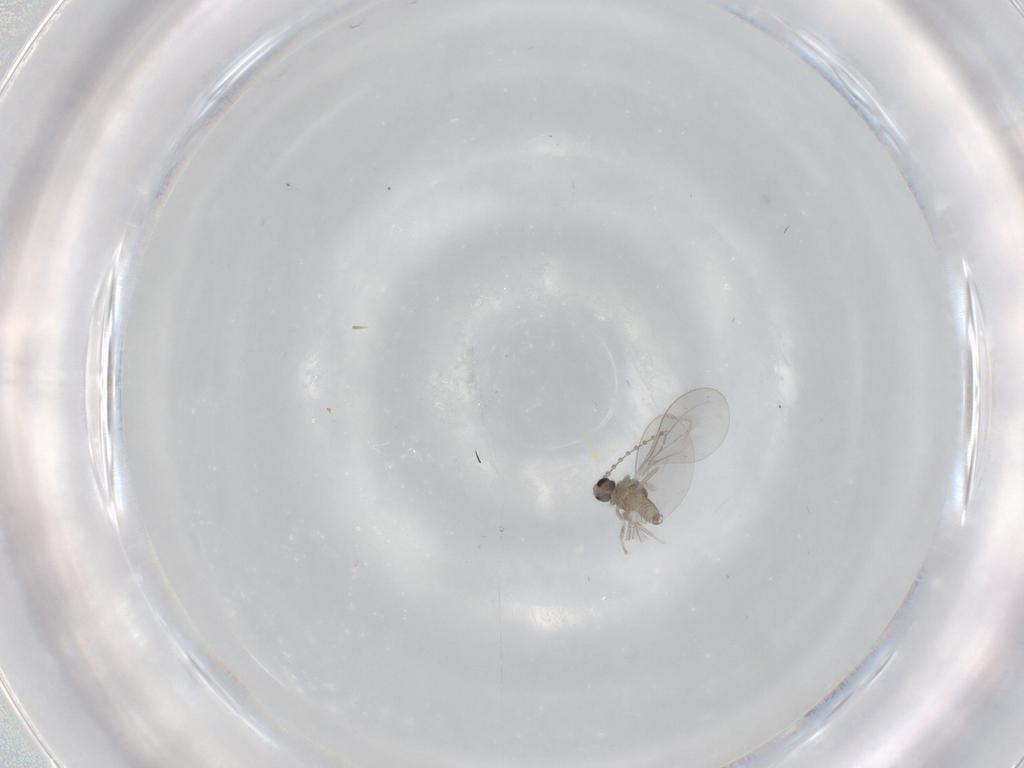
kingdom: Animalia
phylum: Arthropoda
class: Insecta
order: Diptera
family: Cecidomyiidae
